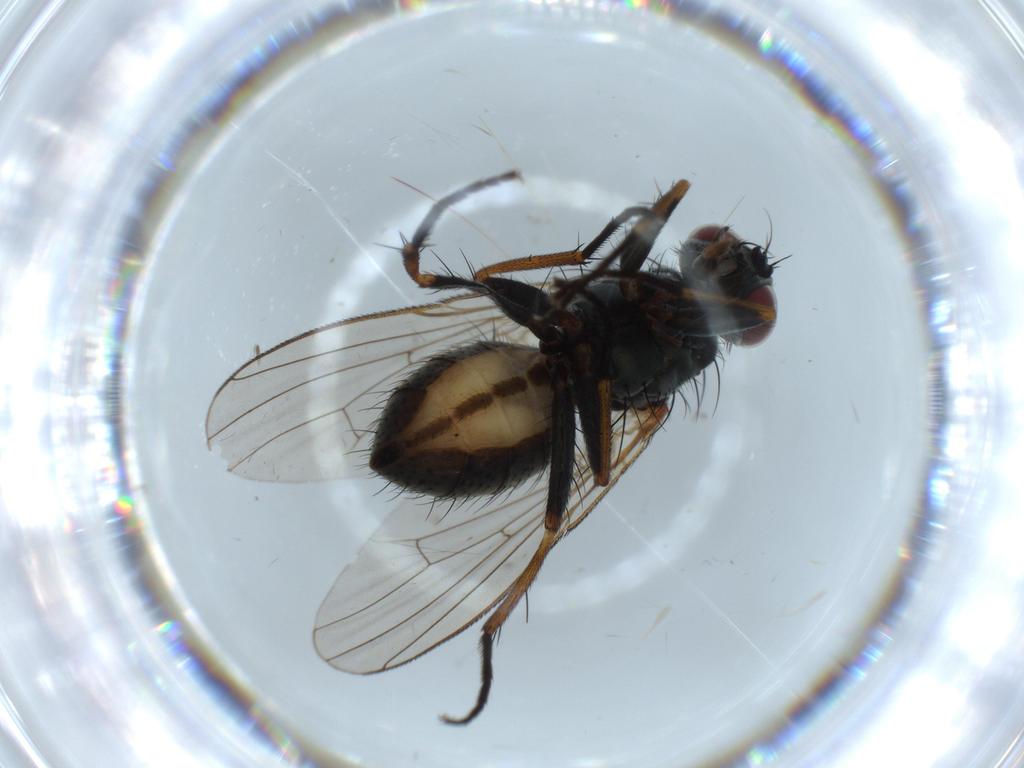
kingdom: Animalia
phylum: Arthropoda
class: Insecta
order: Diptera
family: Muscidae
